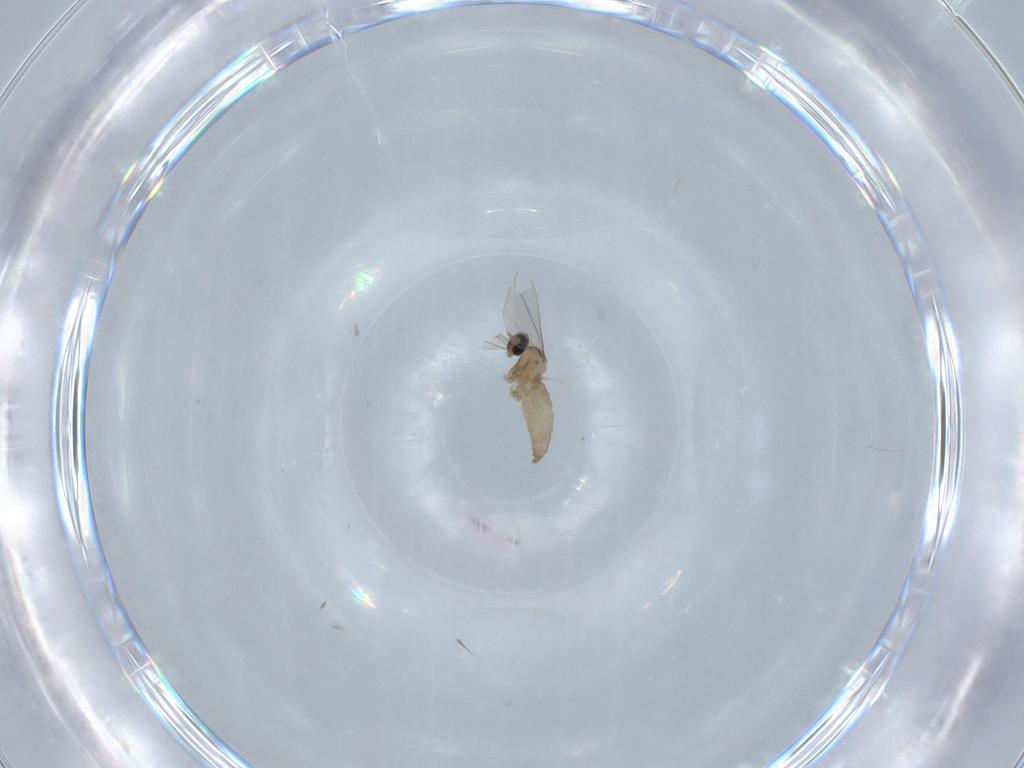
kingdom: Animalia
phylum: Arthropoda
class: Insecta
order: Diptera
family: Cecidomyiidae
